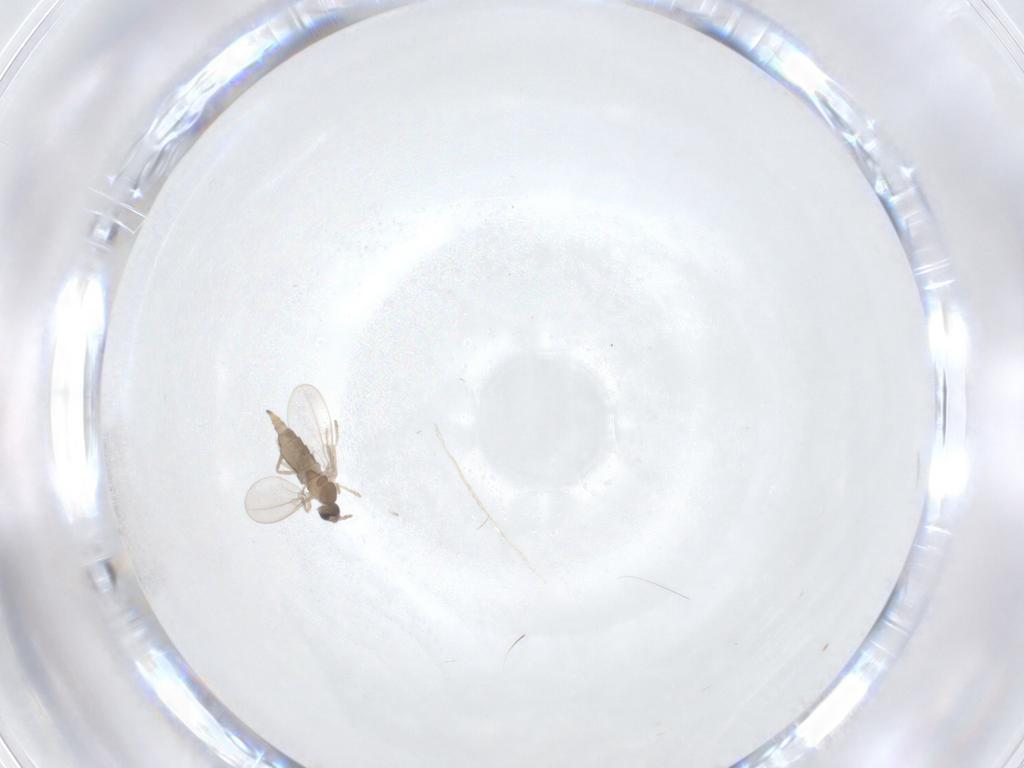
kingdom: Animalia
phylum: Arthropoda
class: Insecta
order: Diptera
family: Cecidomyiidae
